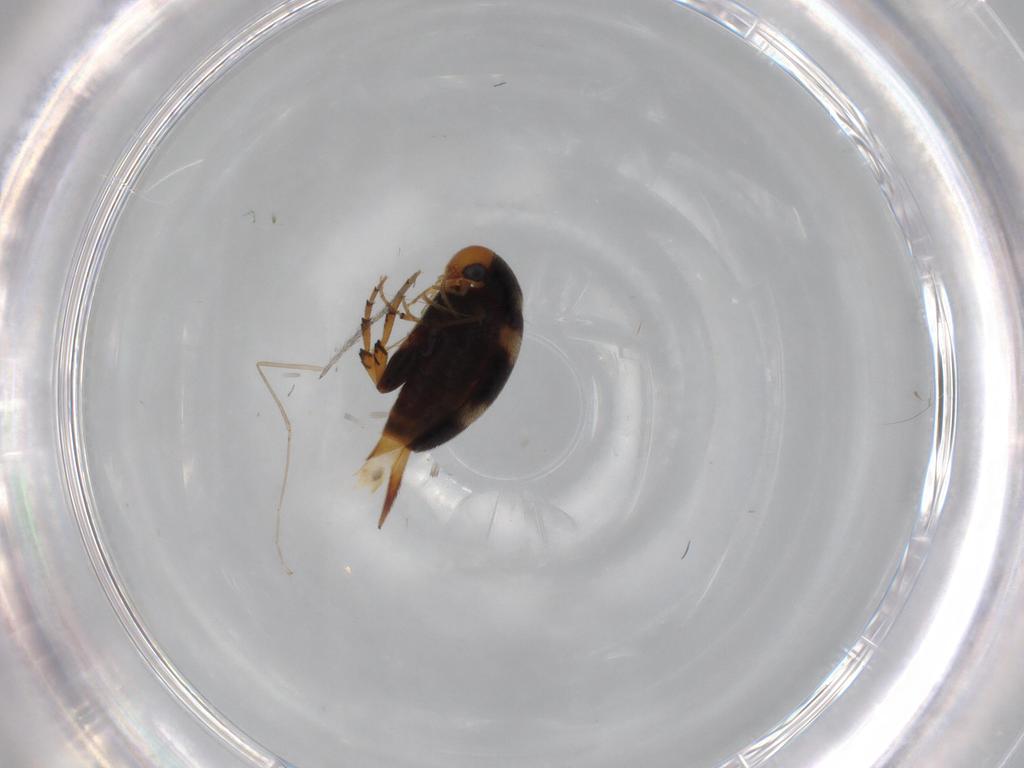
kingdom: Animalia
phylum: Arthropoda
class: Insecta
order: Coleoptera
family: Mordellidae
